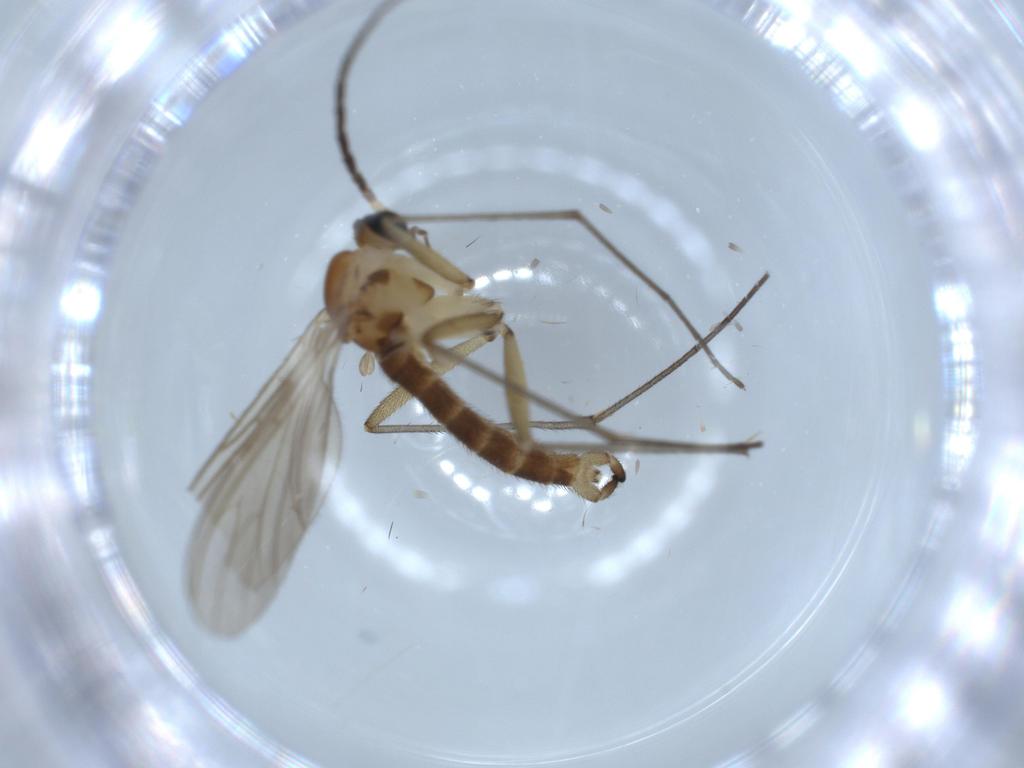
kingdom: Animalia
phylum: Arthropoda
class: Insecta
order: Diptera
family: Sciaridae
